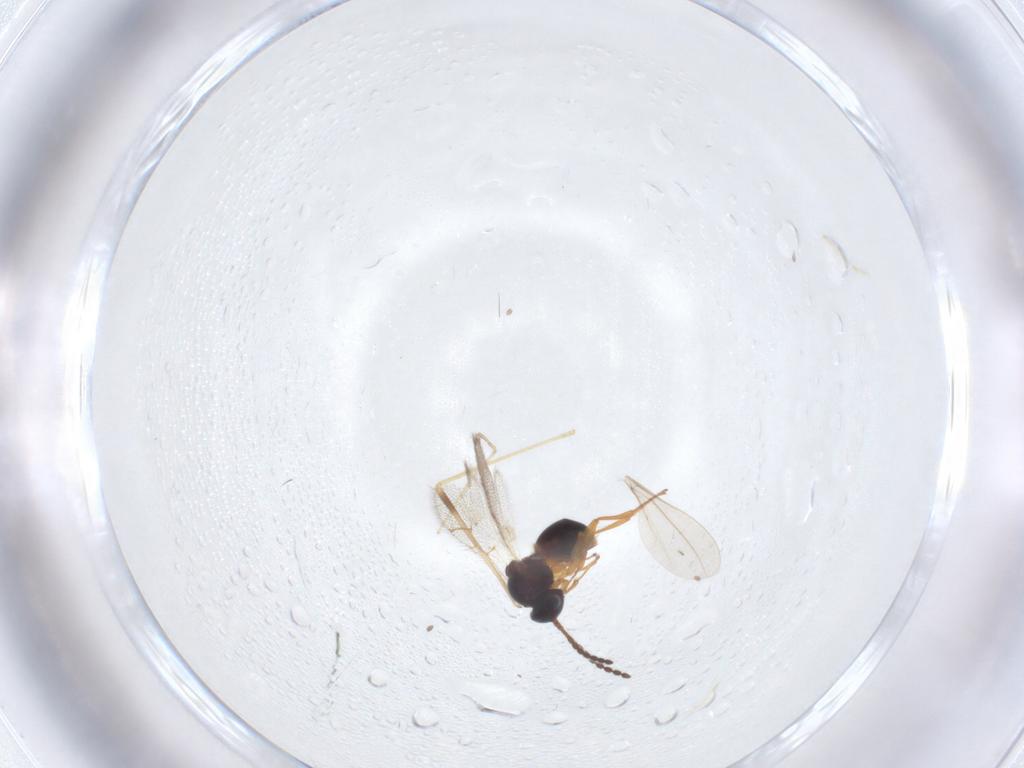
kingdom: Animalia
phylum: Arthropoda
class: Insecta
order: Hymenoptera
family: Figitidae
